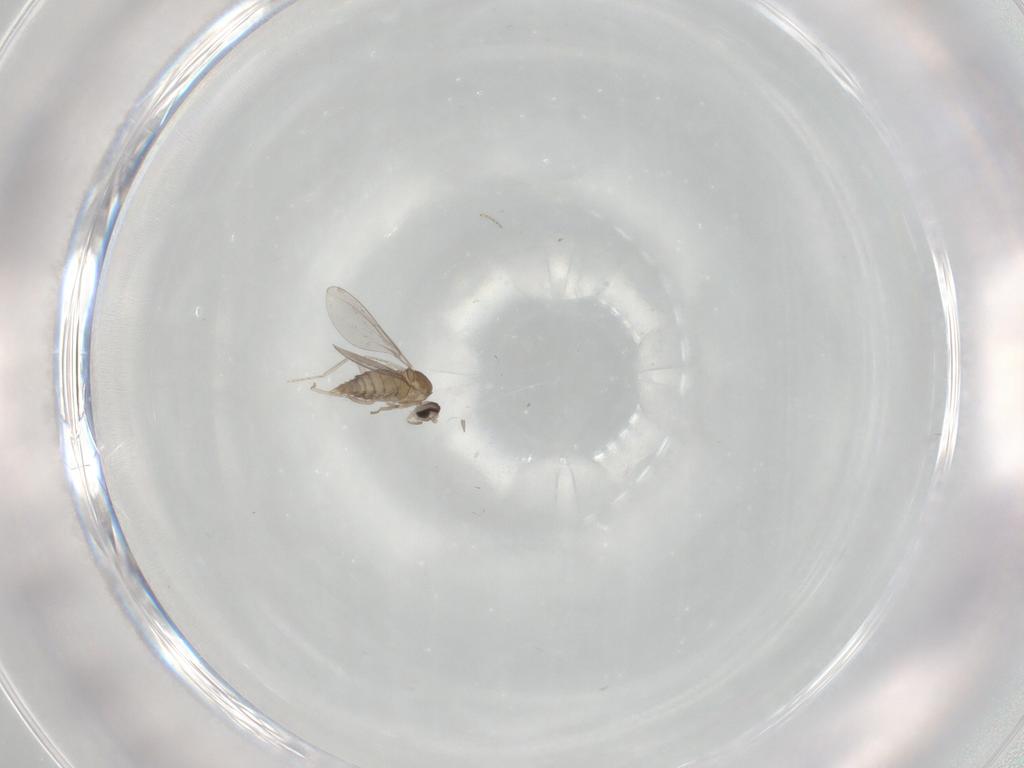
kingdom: Animalia
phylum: Arthropoda
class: Insecta
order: Diptera
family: Cecidomyiidae
